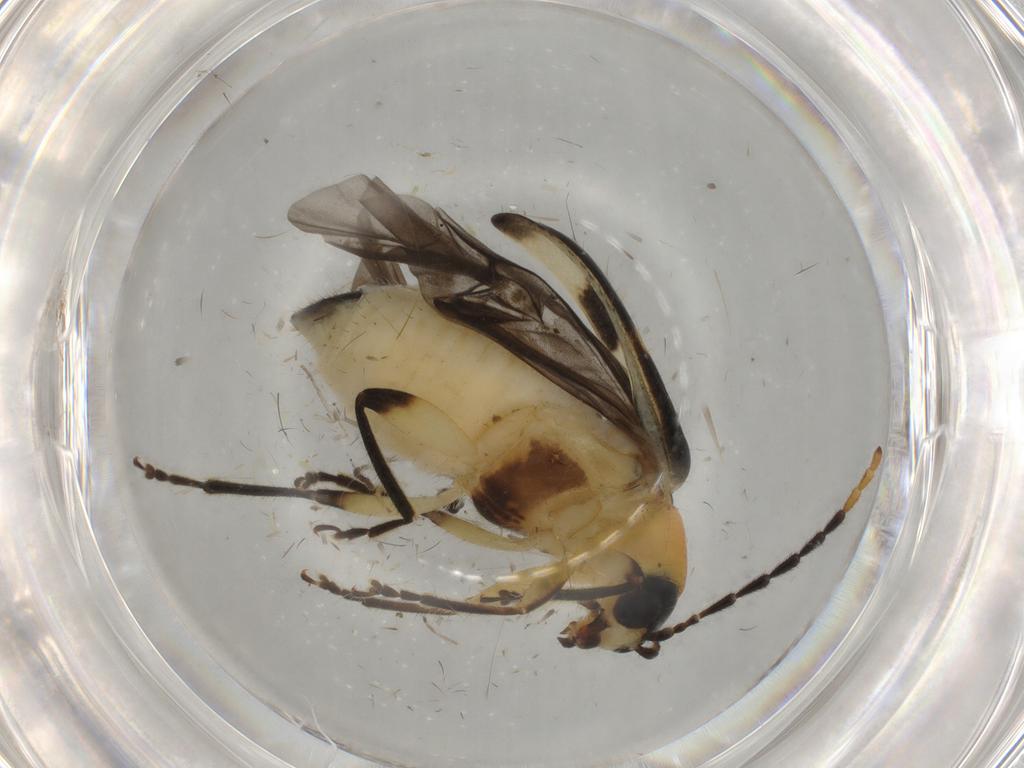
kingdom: Animalia
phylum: Arthropoda
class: Insecta
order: Coleoptera
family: Chrysomelidae
